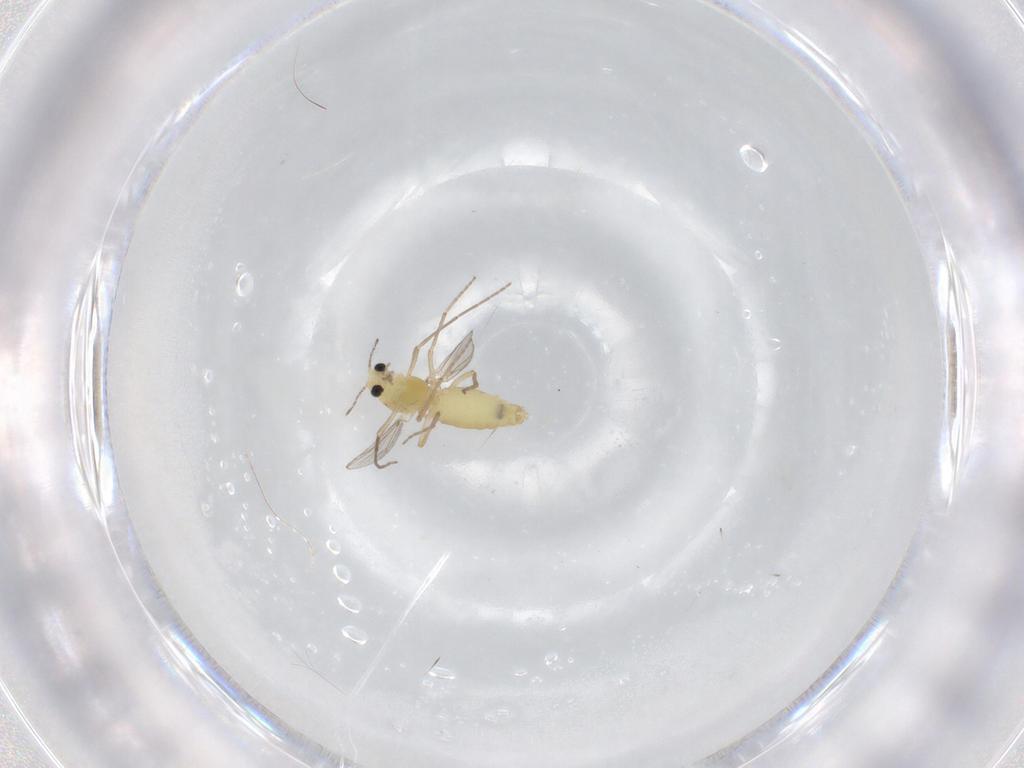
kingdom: Animalia
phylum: Arthropoda
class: Insecta
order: Diptera
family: Chironomidae
